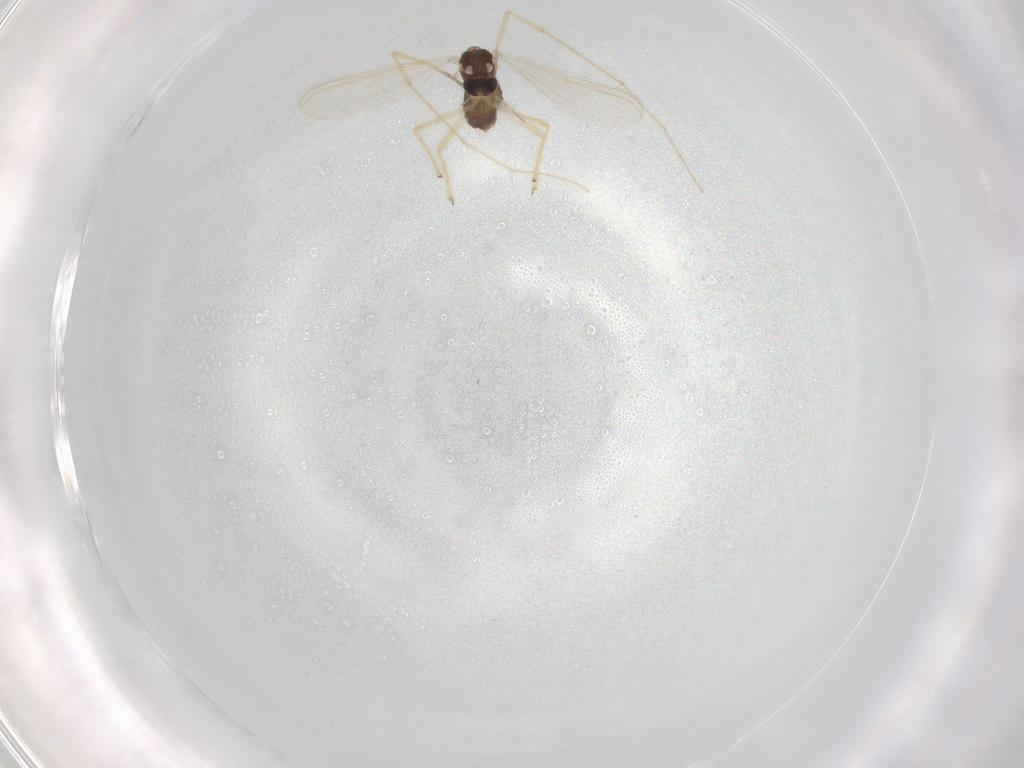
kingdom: Animalia
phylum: Arthropoda
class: Insecta
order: Diptera
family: Chironomidae
